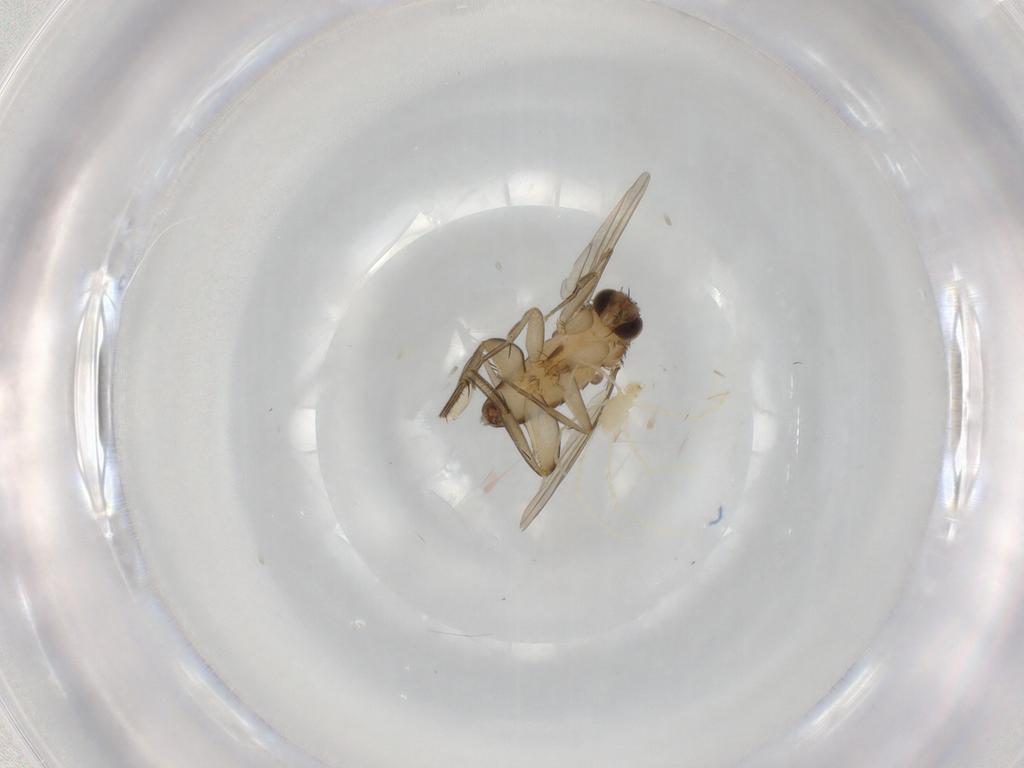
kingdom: Animalia
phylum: Arthropoda
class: Insecta
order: Diptera
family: Phoridae
